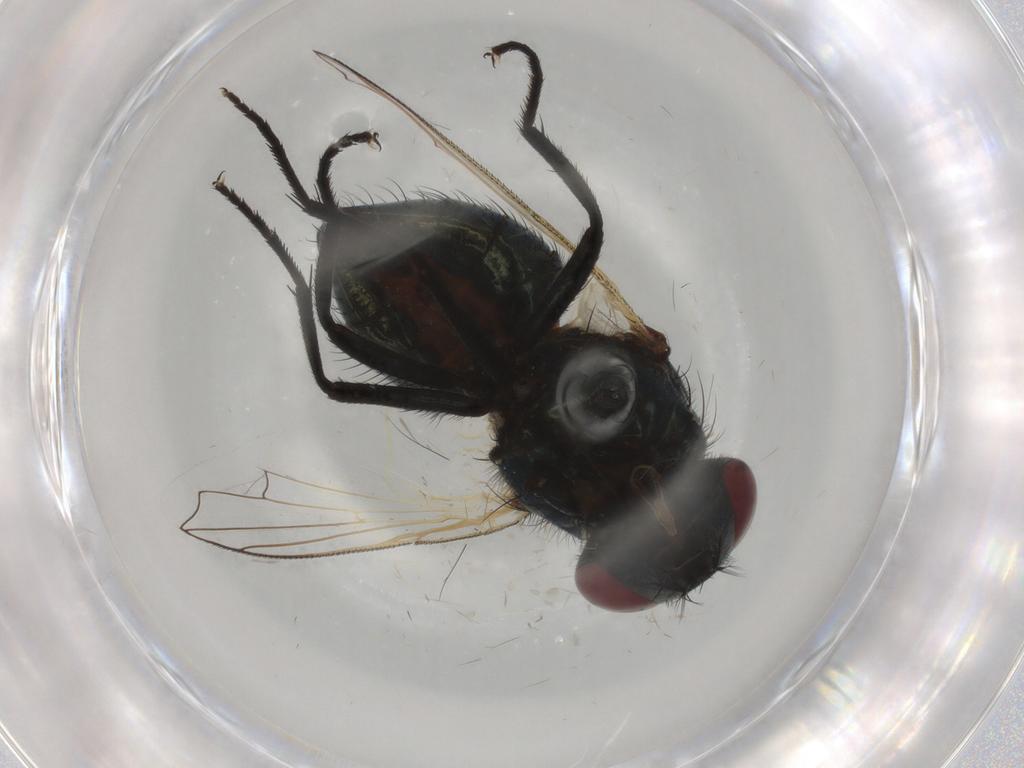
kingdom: Animalia
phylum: Arthropoda
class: Insecta
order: Diptera
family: Muscidae
